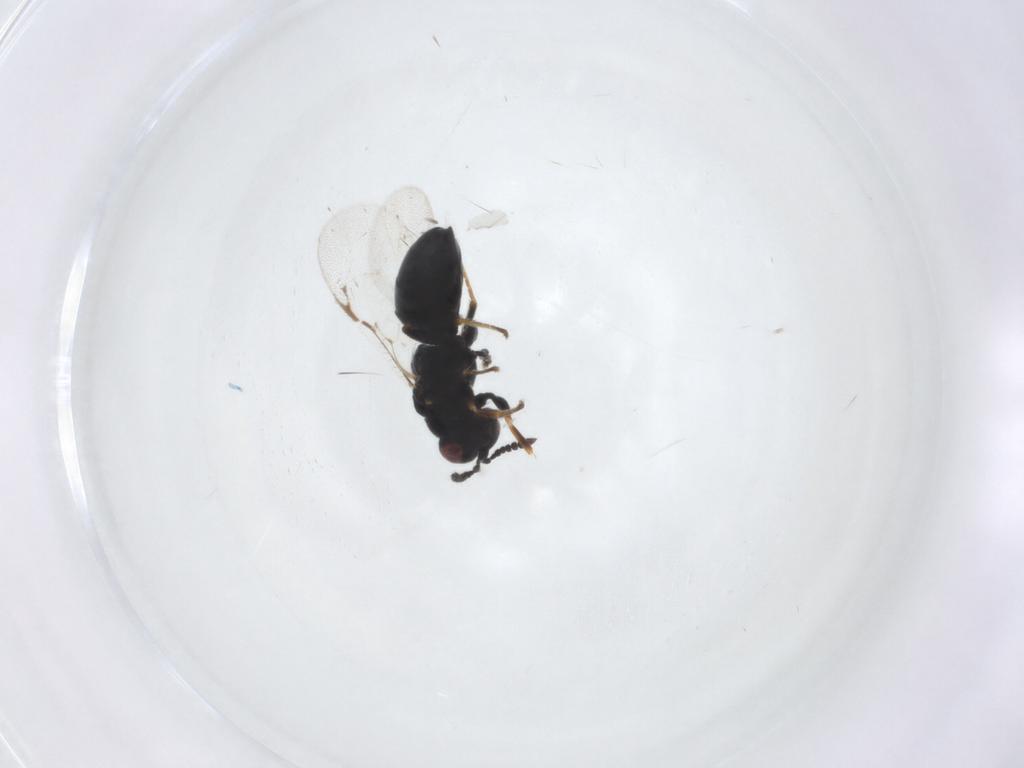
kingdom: Animalia
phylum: Arthropoda
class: Insecta
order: Hymenoptera
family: Eurytomidae
